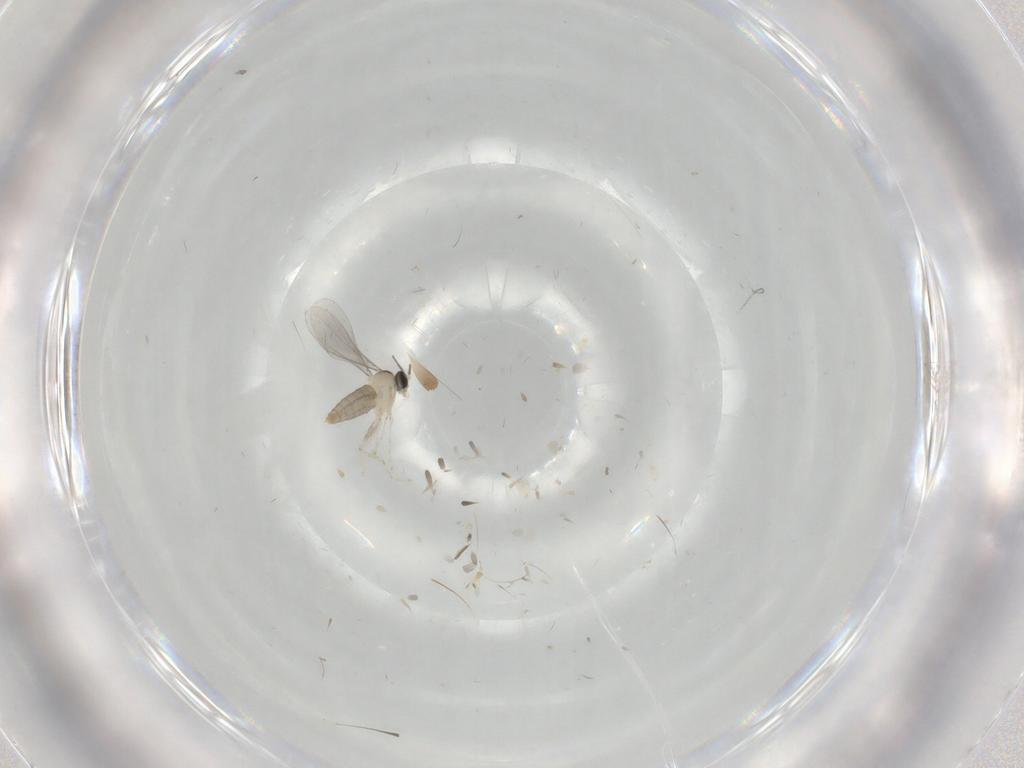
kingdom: Animalia
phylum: Arthropoda
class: Insecta
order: Diptera
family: Cecidomyiidae
